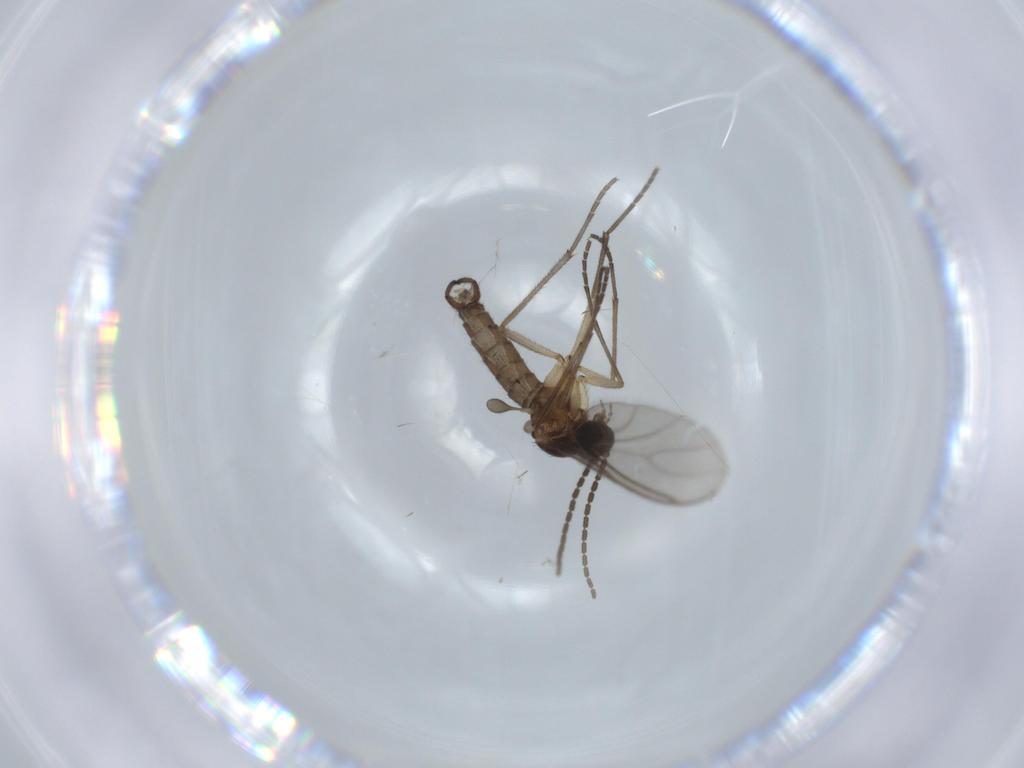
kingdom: Animalia
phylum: Arthropoda
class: Insecta
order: Diptera
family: Sciaridae
